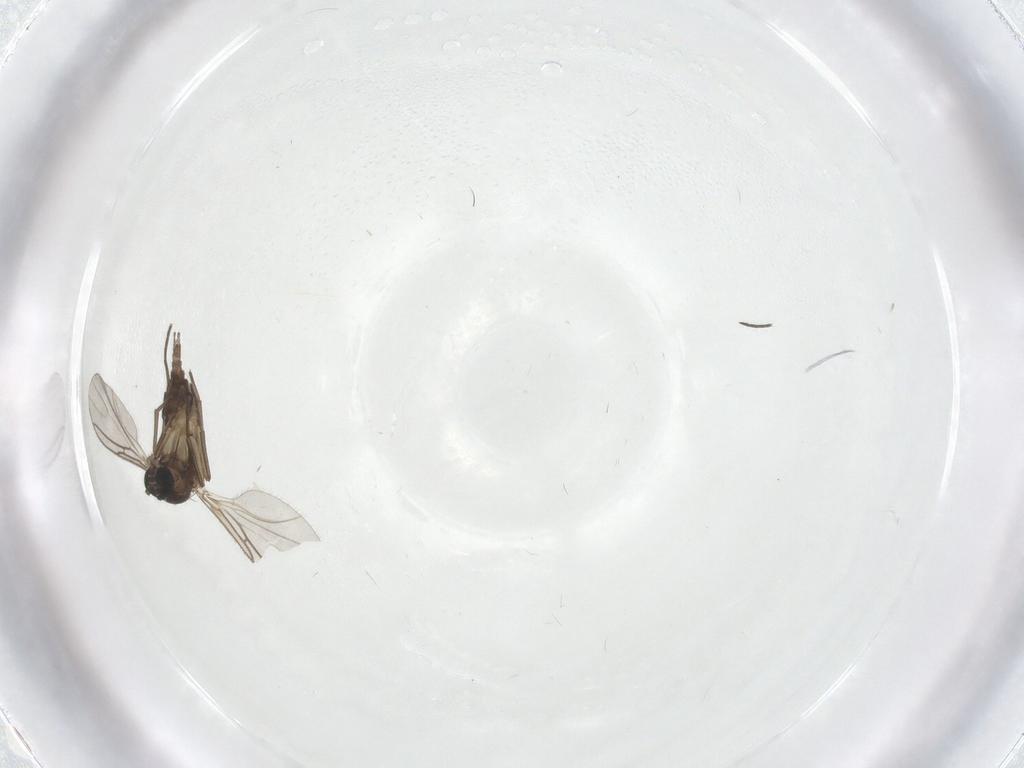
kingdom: Animalia
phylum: Arthropoda
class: Insecta
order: Diptera
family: Sciaridae
